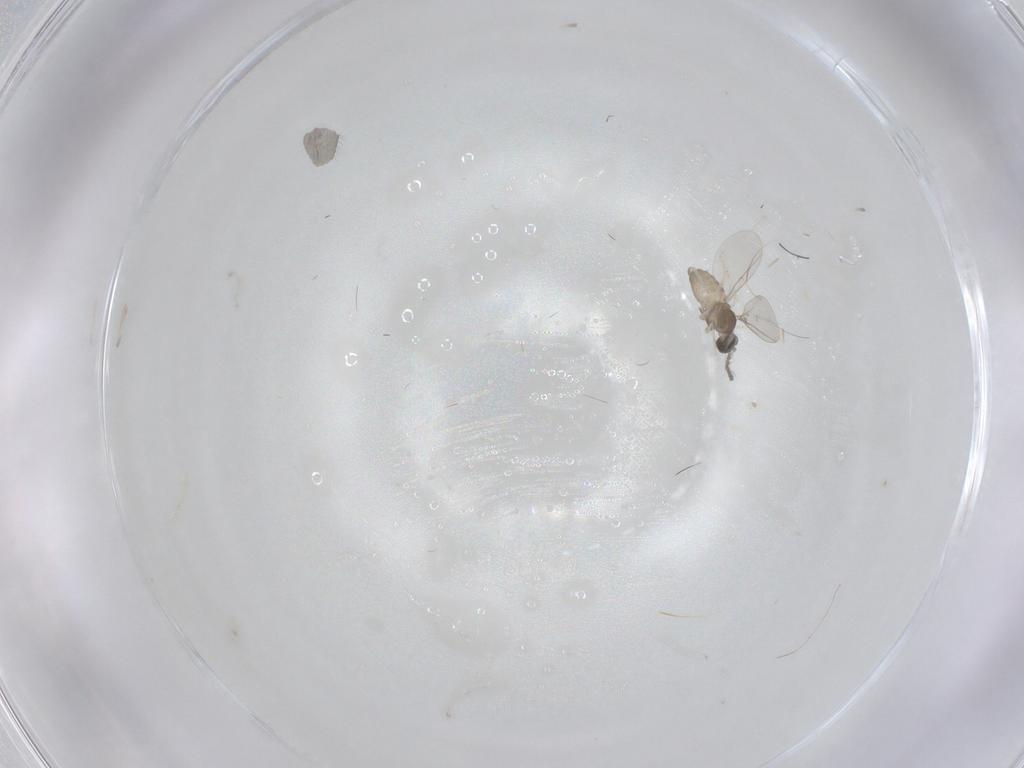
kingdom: Animalia
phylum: Arthropoda
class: Insecta
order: Diptera
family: Cecidomyiidae
